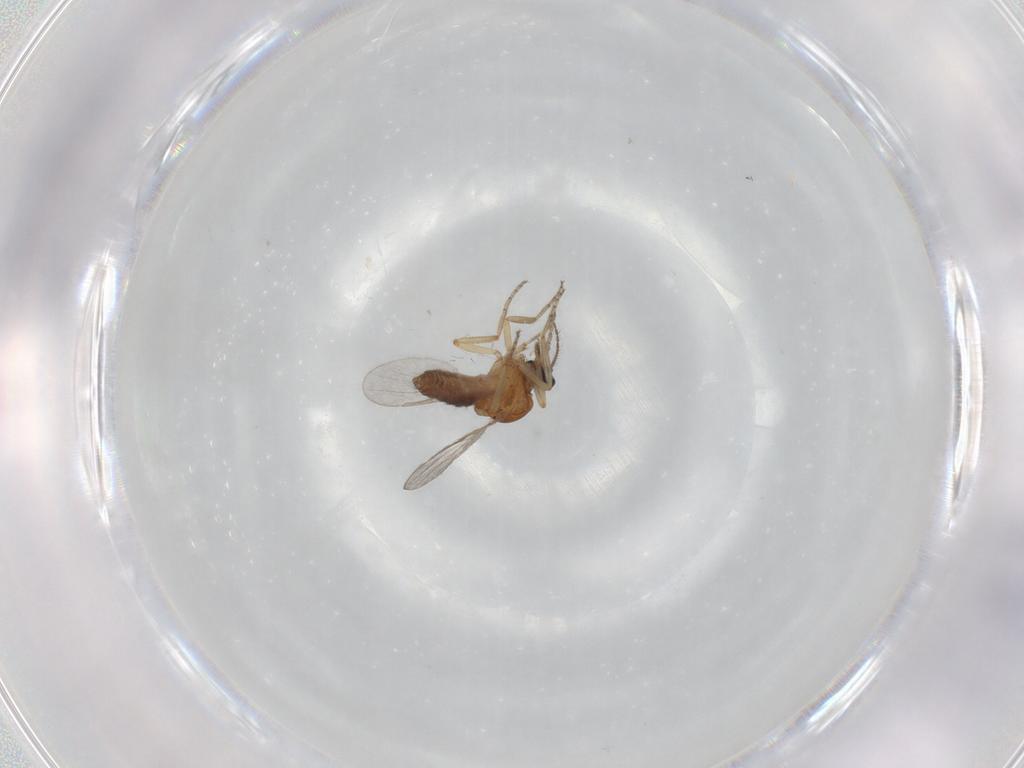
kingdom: Animalia
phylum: Arthropoda
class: Insecta
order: Diptera
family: Ceratopogonidae
